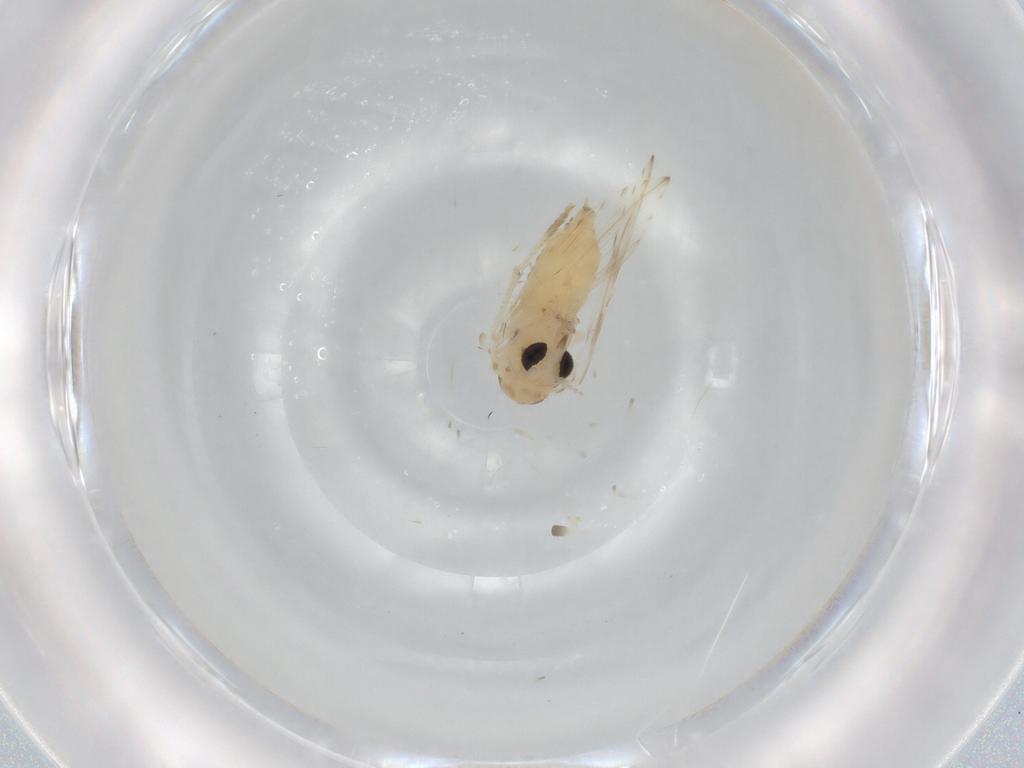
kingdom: Animalia
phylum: Arthropoda
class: Insecta
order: Diptera
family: Psychodidae
